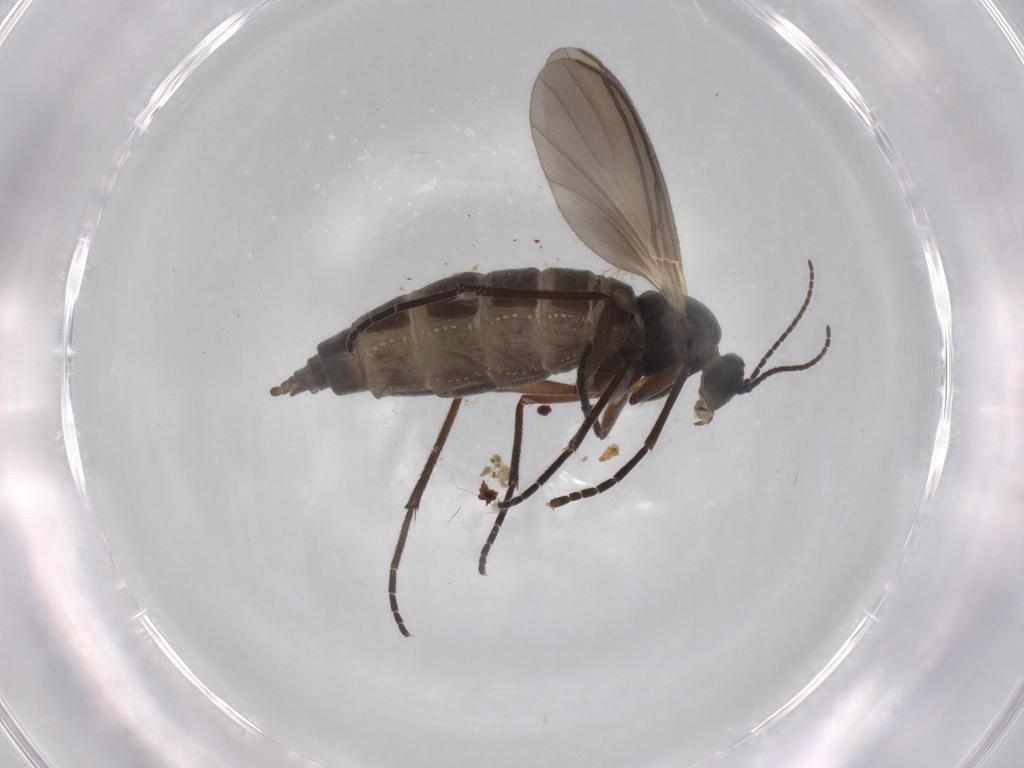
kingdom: Animalia
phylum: Arthropoda
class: Insecta
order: Diptera
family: Sciaridae
